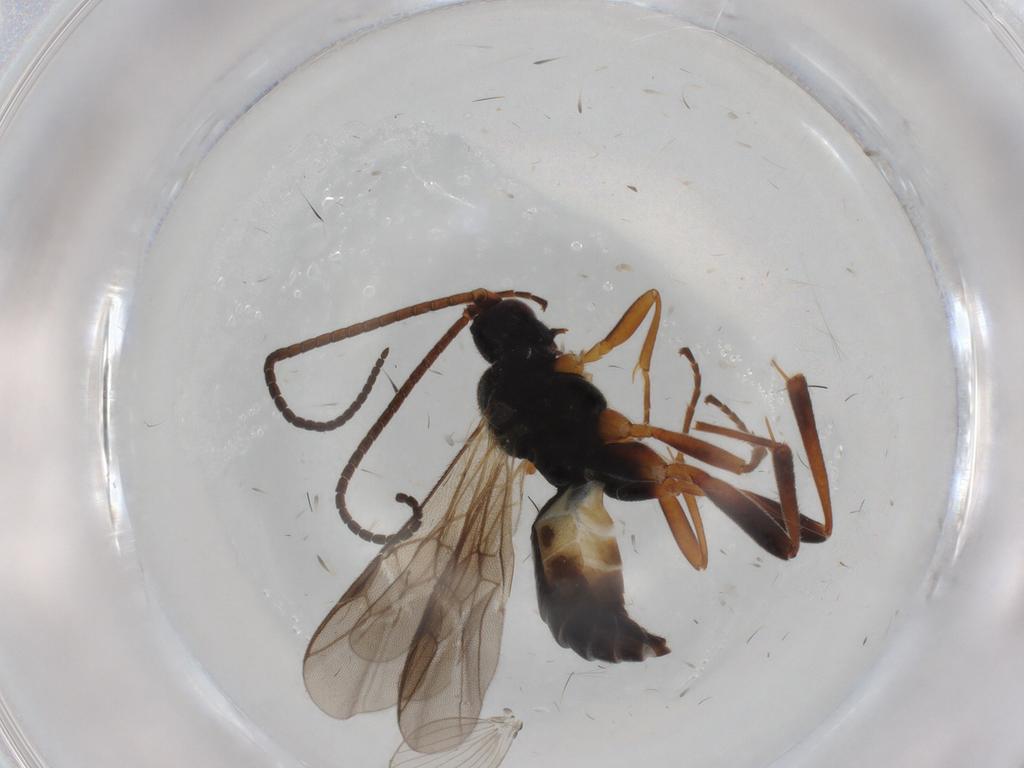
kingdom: Animalia
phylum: Arthropoda
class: Insecta
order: Hymenoptera
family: Braconidae
